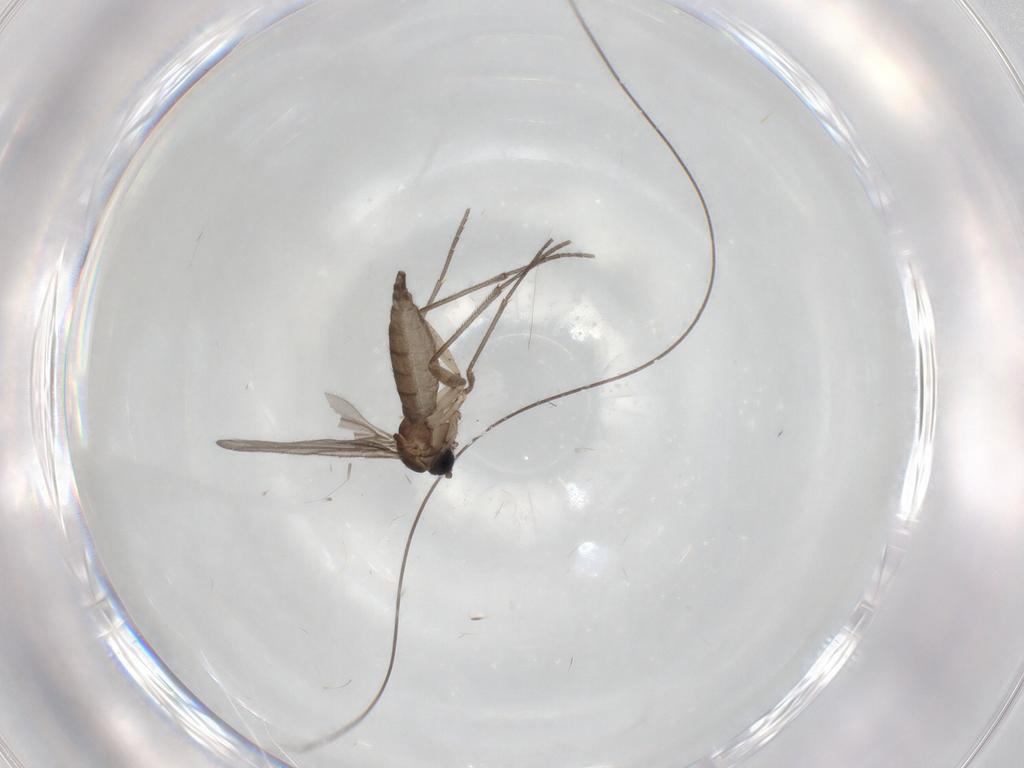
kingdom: Animalia
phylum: Arthropoda
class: Insecta
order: Diptera
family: Sciaridae
